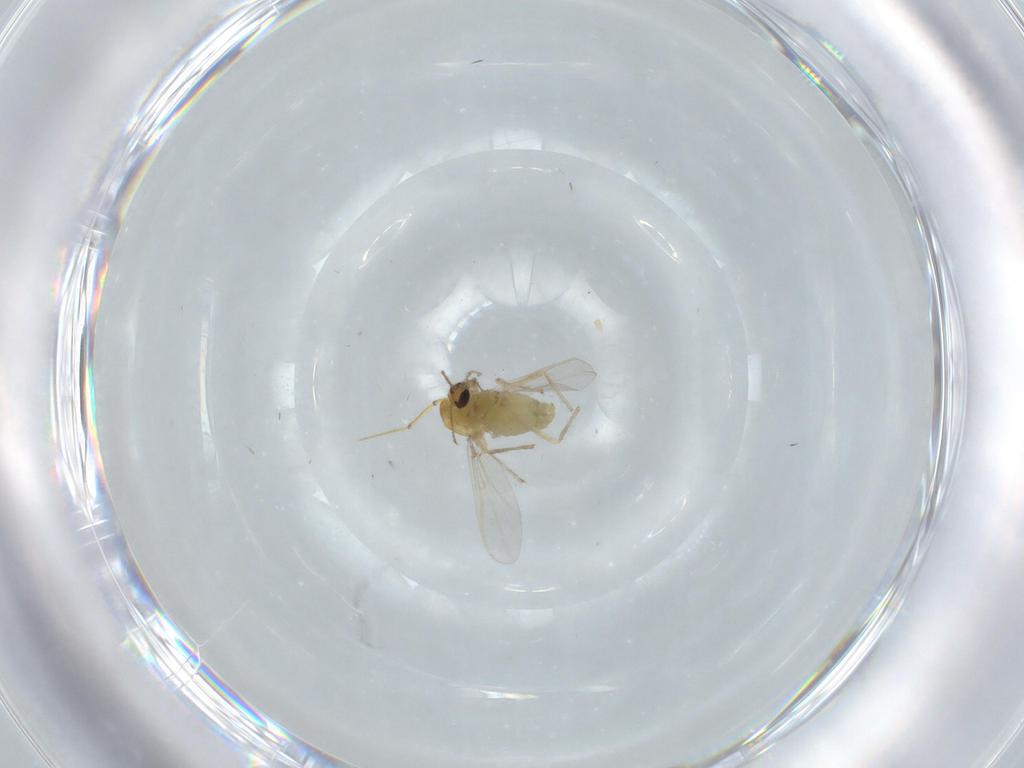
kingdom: Animalia
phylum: Arthropoda
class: Insecta
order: Diptera
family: Chironomidae
